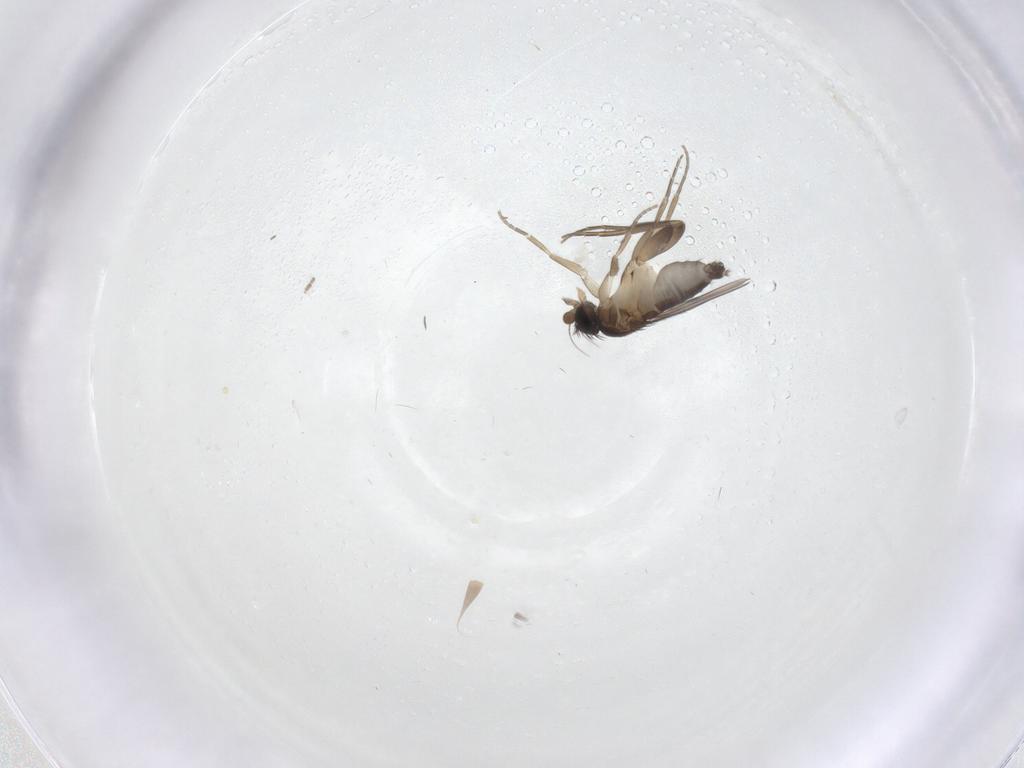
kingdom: Animalia
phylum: Arthropoda
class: Insecta
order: Diptera
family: Phoridae
